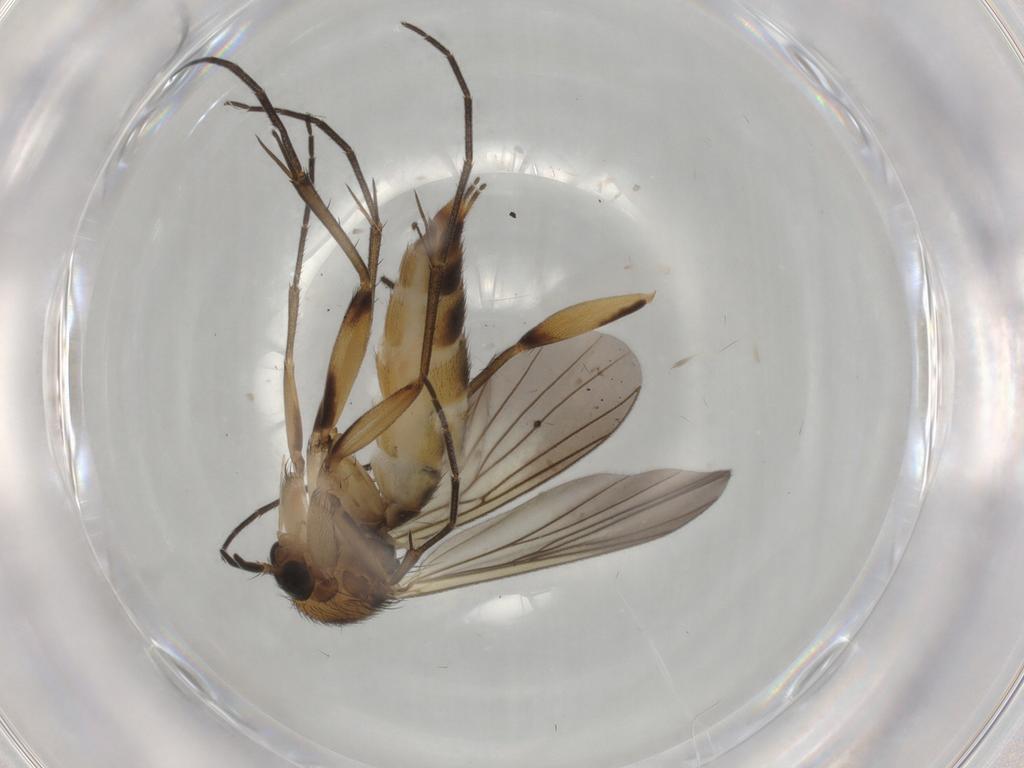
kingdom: Animalia
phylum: Arthropoda
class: Insecta
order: Diptera
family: Mycetophilidae
